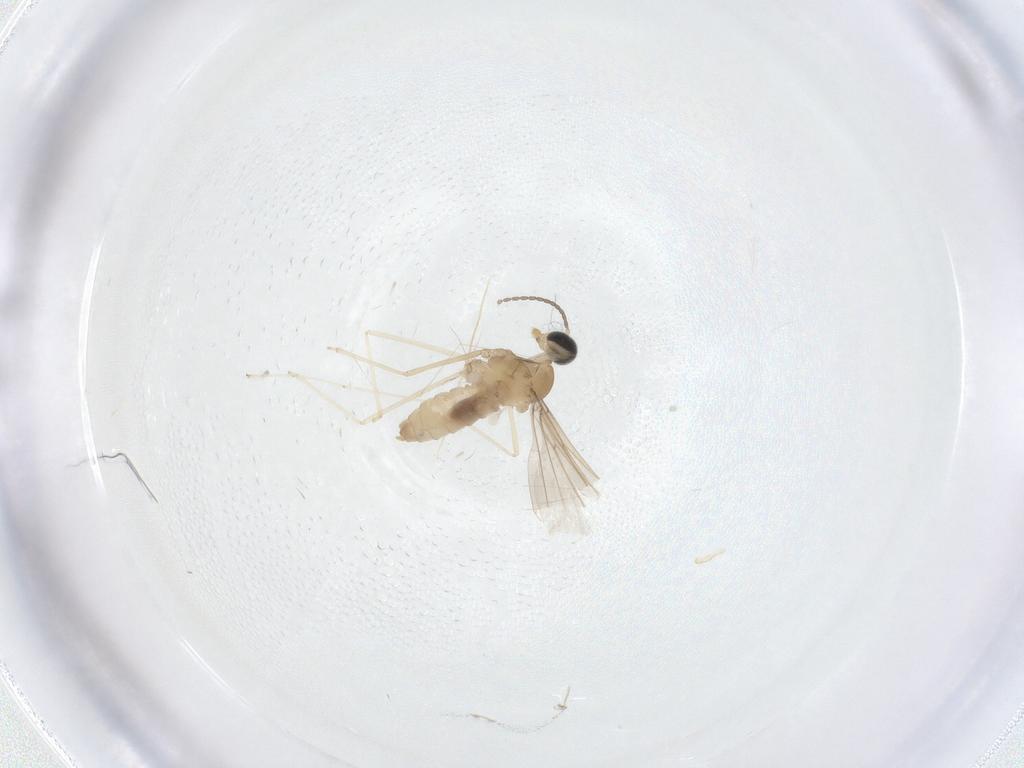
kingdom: Animalia
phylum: Arthropoda
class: Insecta
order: Diptera
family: Cecidomyiidae
